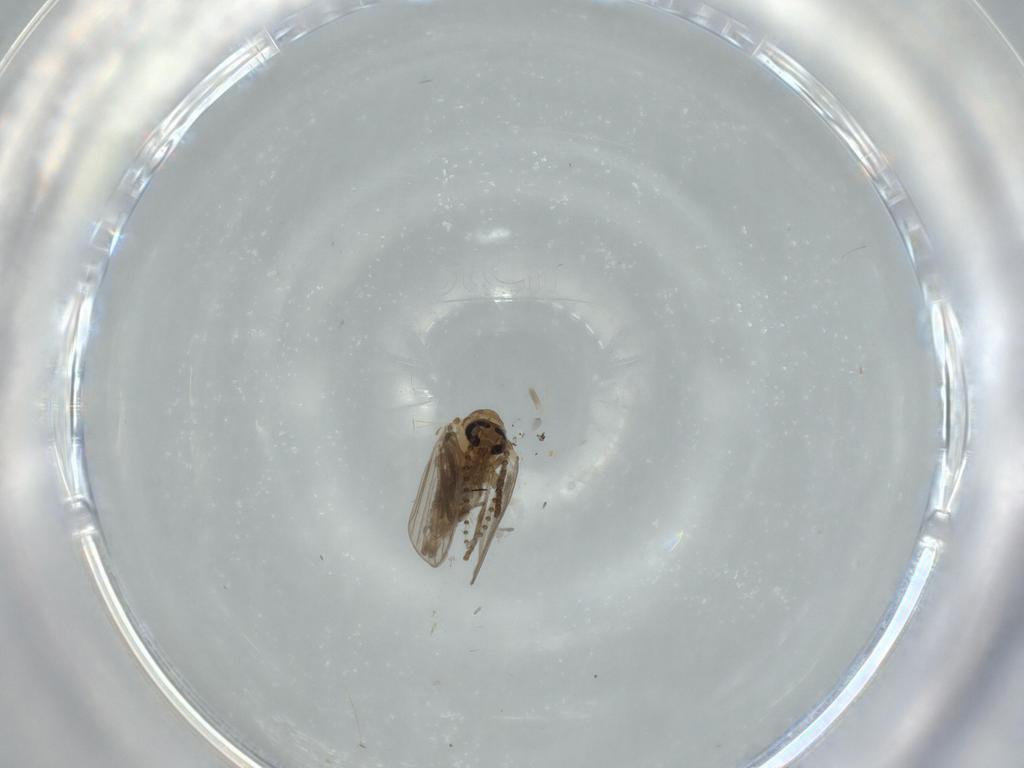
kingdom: Animalia
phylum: Arthropoda
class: Insecta
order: Diptera
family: Cecidomyiidae
